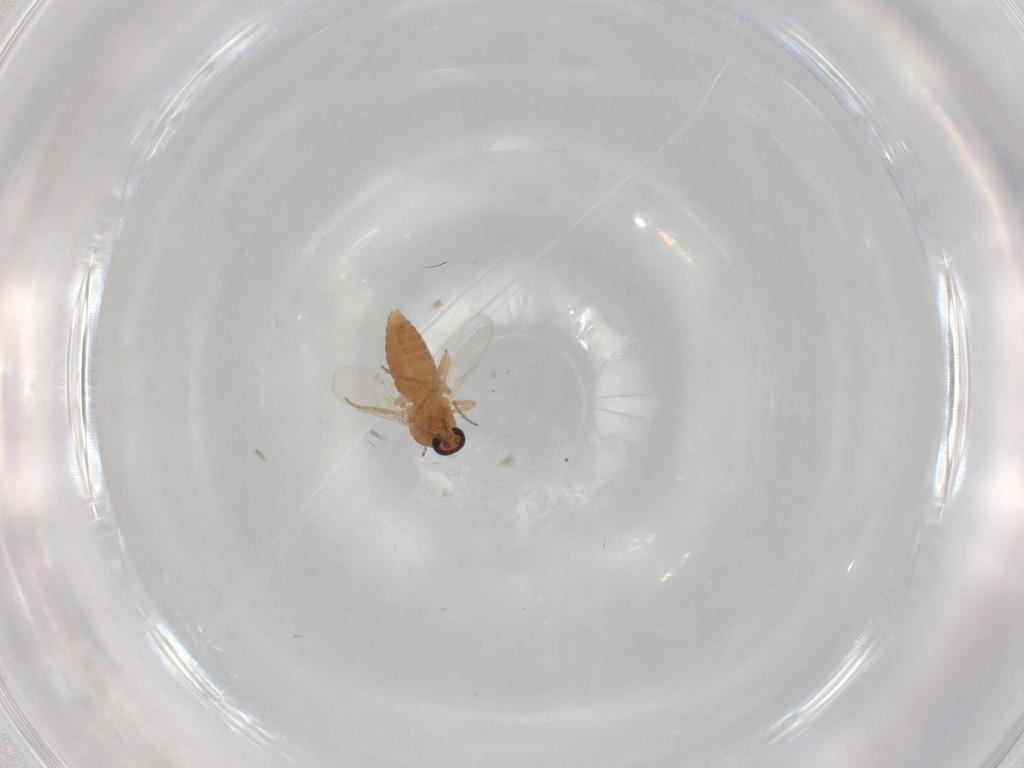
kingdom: Animalia
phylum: Arthropoda
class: Insecta
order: Diptera
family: Ceratopogonidae
